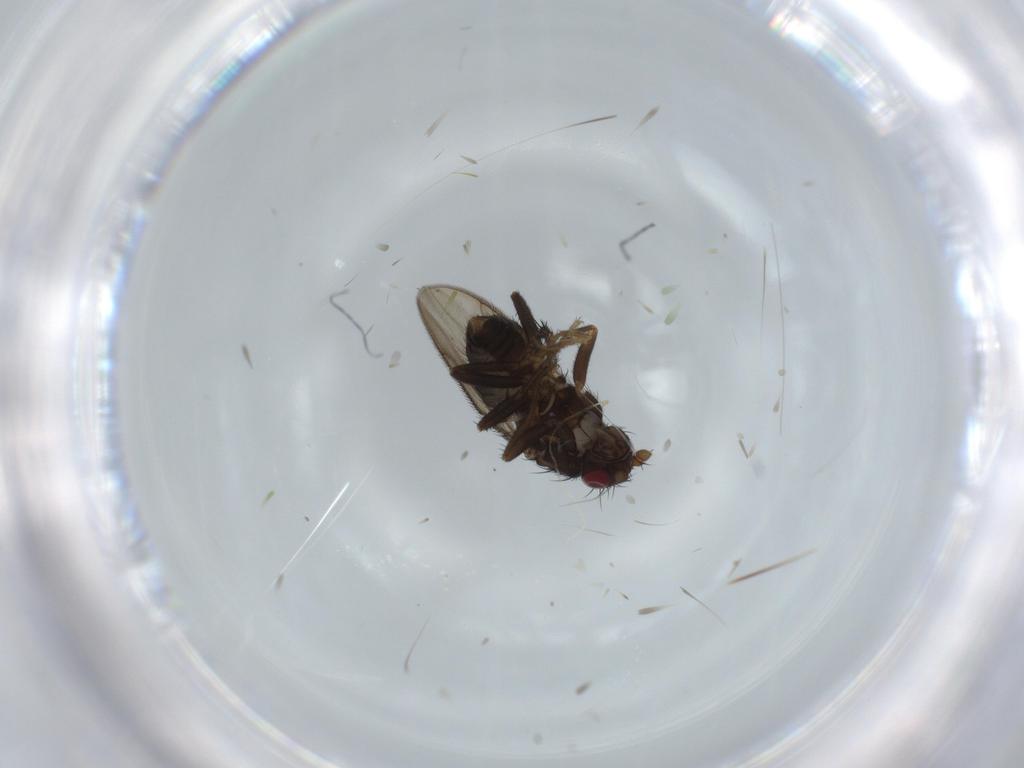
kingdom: Animalia
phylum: Arthropoda
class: Insecta
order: Diptera
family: Sphaeroceridae
